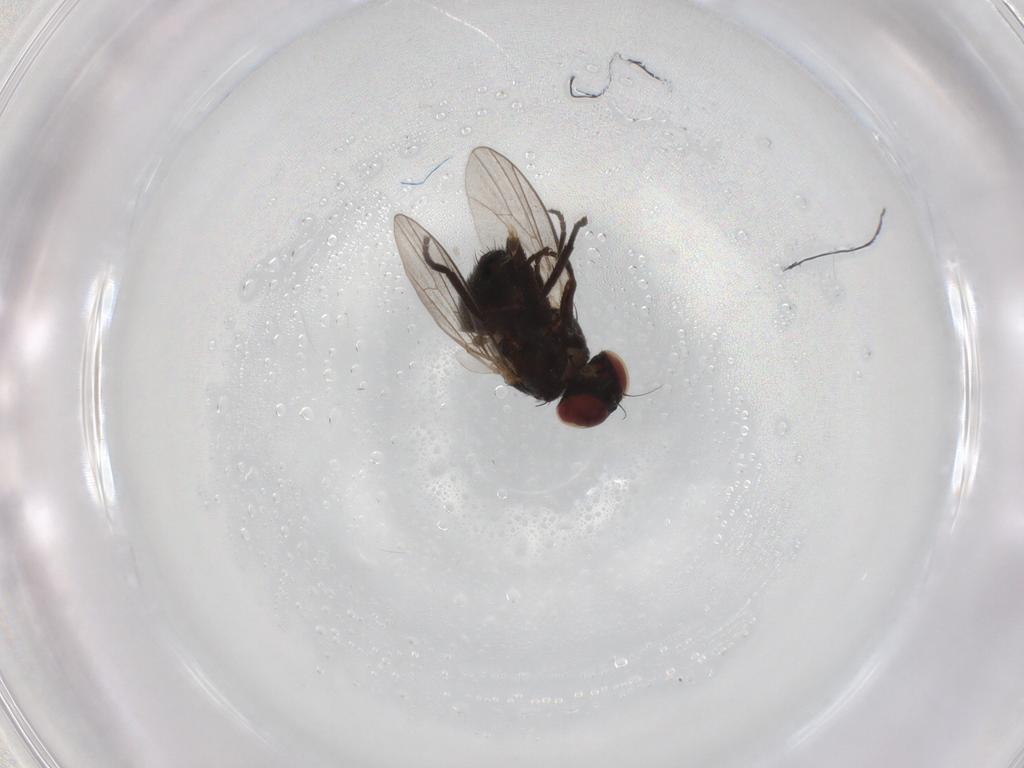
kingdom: Animalia
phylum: Arthropoda
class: Insecta
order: Diptera
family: Agromyzidae
